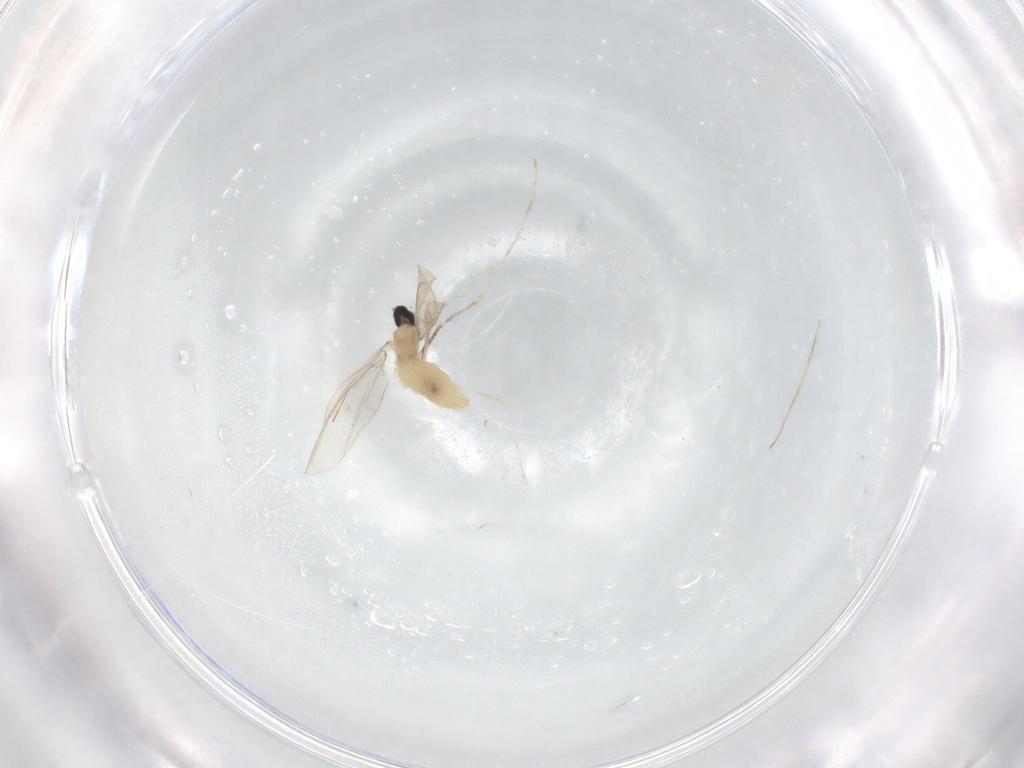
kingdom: Animalia
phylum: Arthropoda
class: Insecta
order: Diptera
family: Cecidomyiidae
